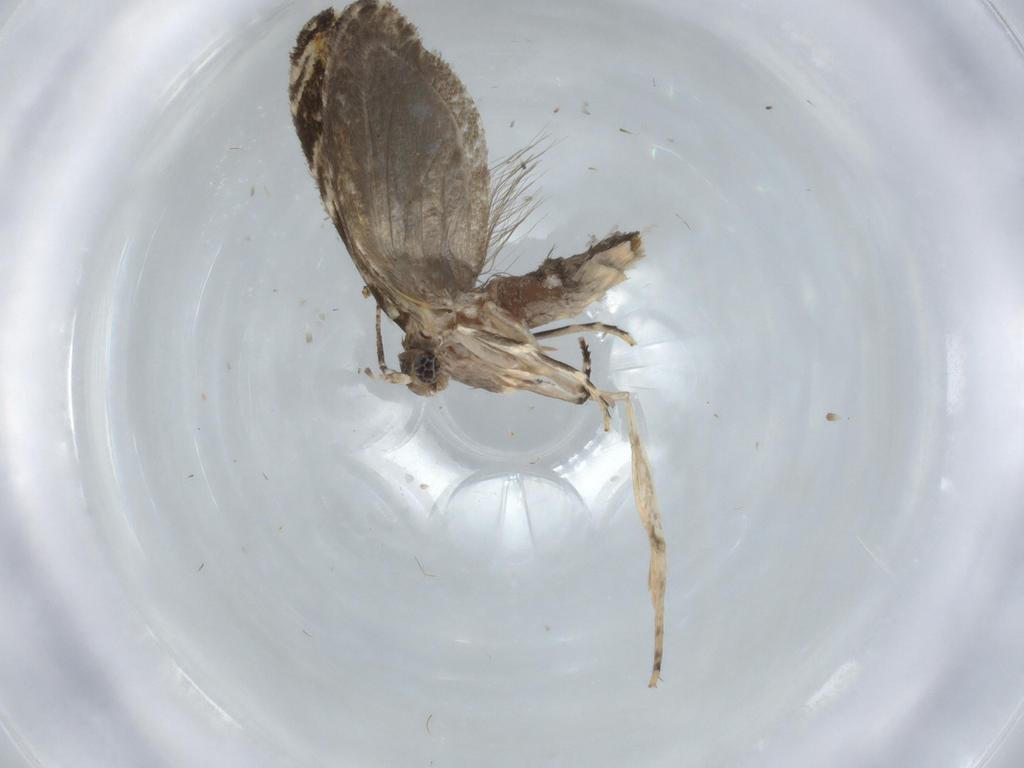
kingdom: Animalia
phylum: Arthropoda
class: Insecta
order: Lepidoptera
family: Tineidae
